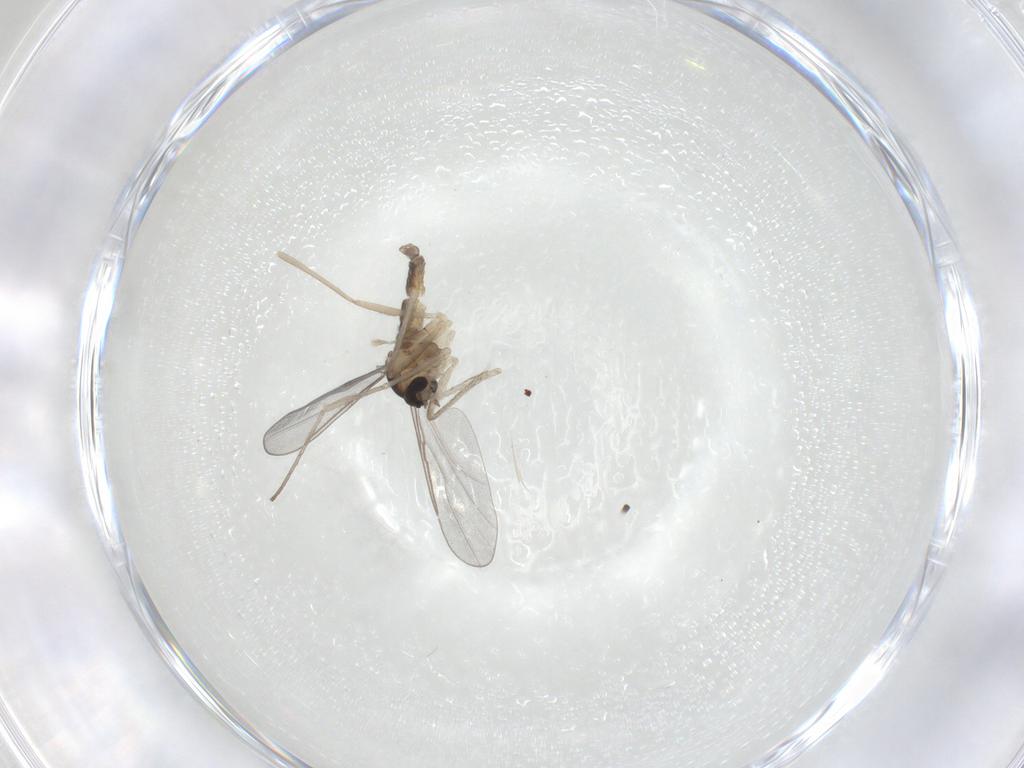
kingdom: Animalia
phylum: Arthropoda
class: Insecta
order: Diptera
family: Cecidomyiidae
